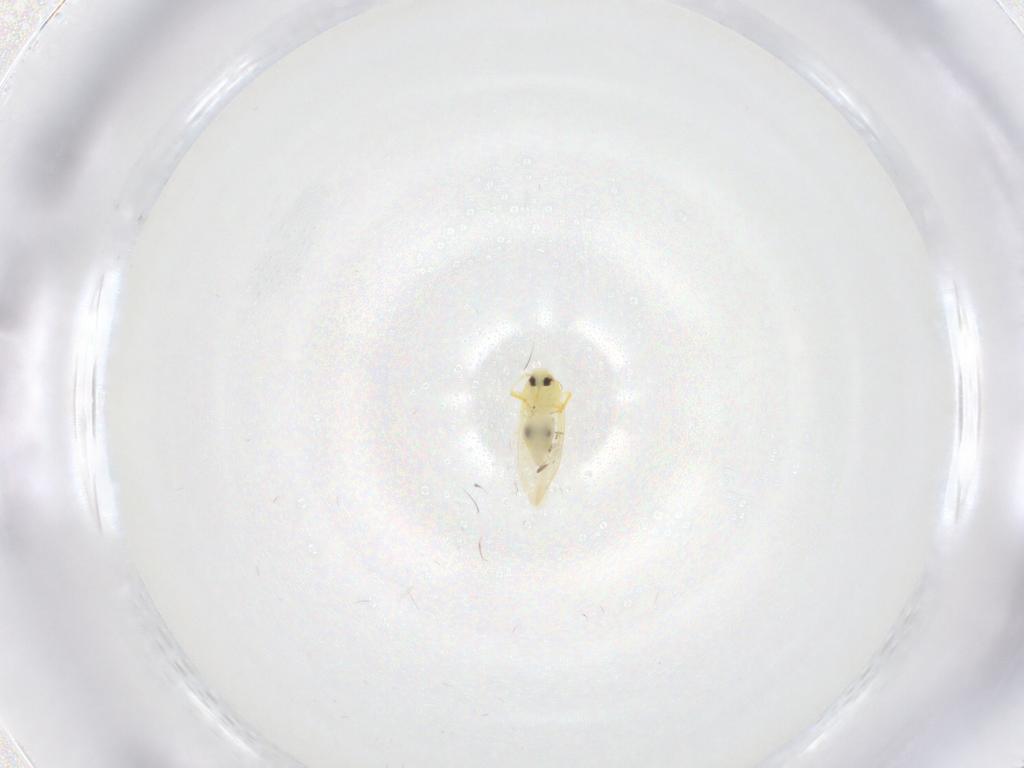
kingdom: Animalia
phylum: Arthropoda
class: Insecta
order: Hemiptera
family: Aleyrodidae
